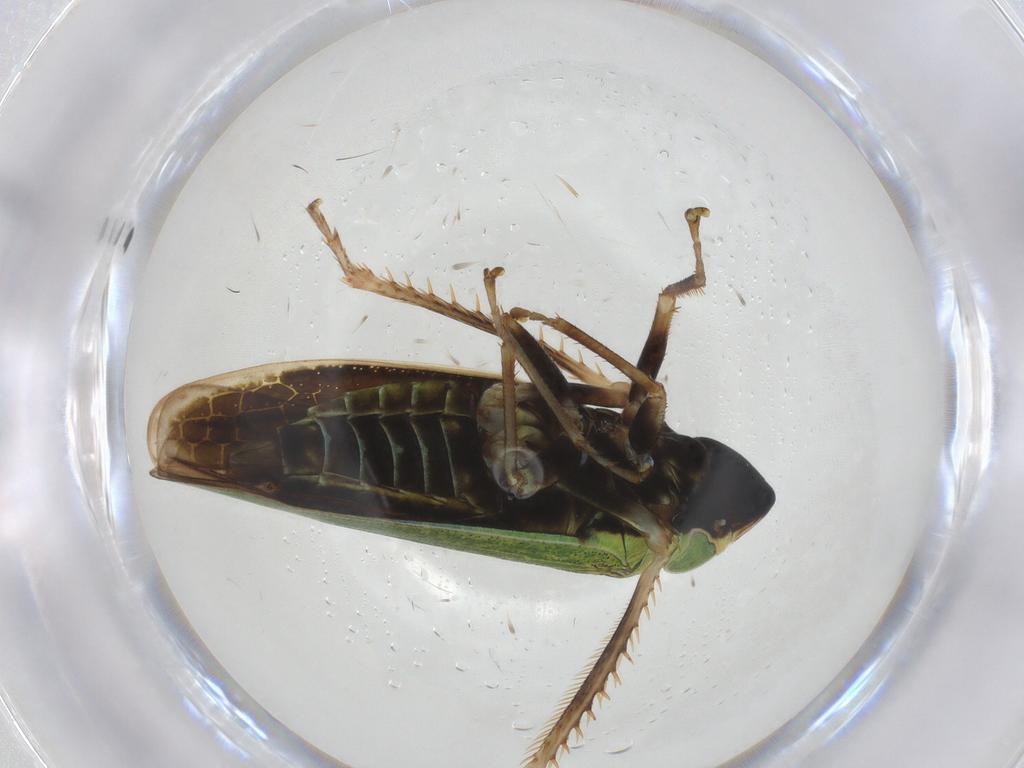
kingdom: Animalia
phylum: Arthropoda
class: Insecta
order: Hemiptera
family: Cicadellidae
